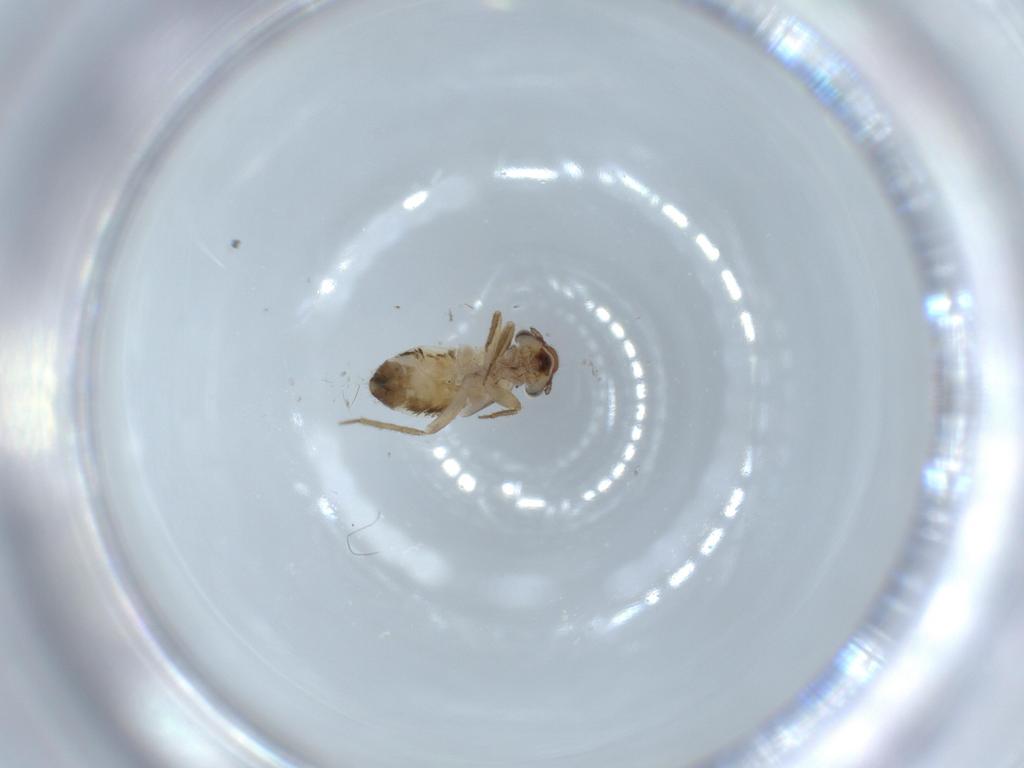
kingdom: Animalia
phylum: Arthropoda
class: Insecta
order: Psocodea
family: Lepidopsocidae
